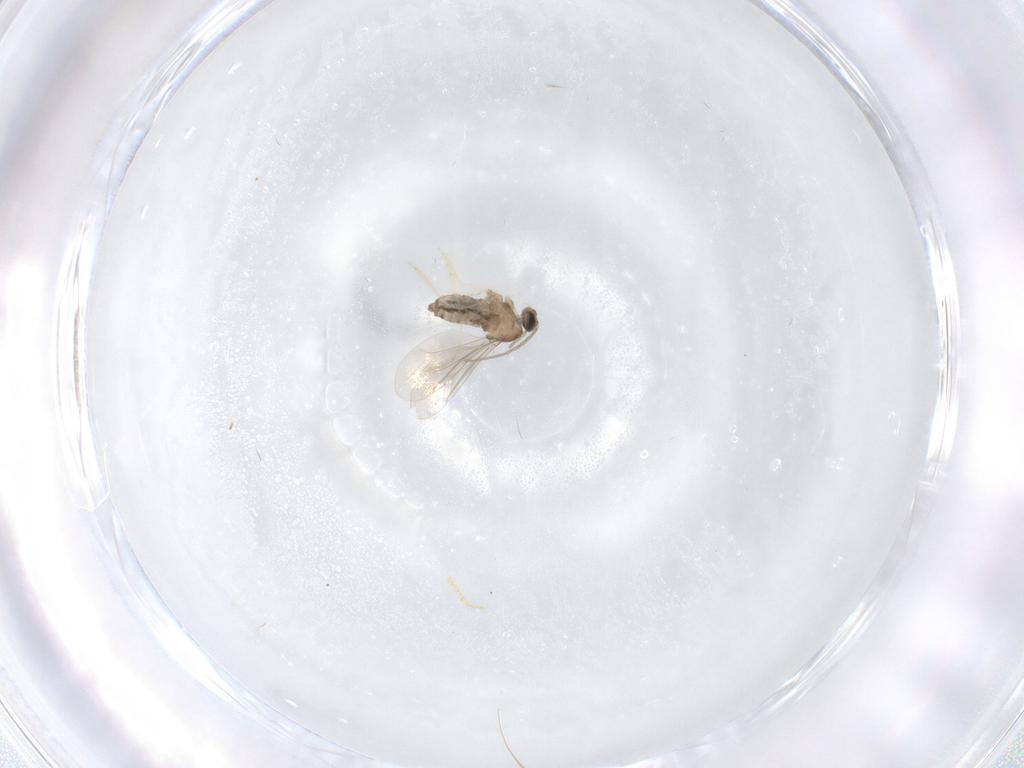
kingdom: Animalia
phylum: Arthropoda
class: Insecta
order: Diptera
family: Cecidomyiidae
